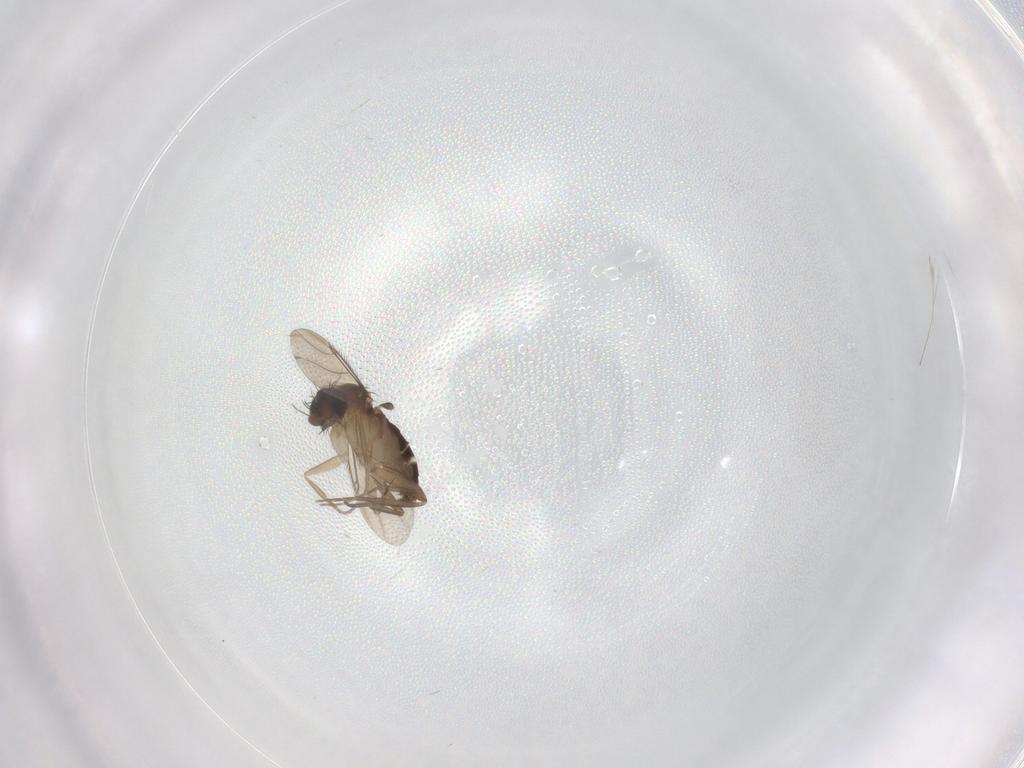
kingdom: Animalia
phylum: Arthropoda
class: Insecta
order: Diptera
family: Phoridae
